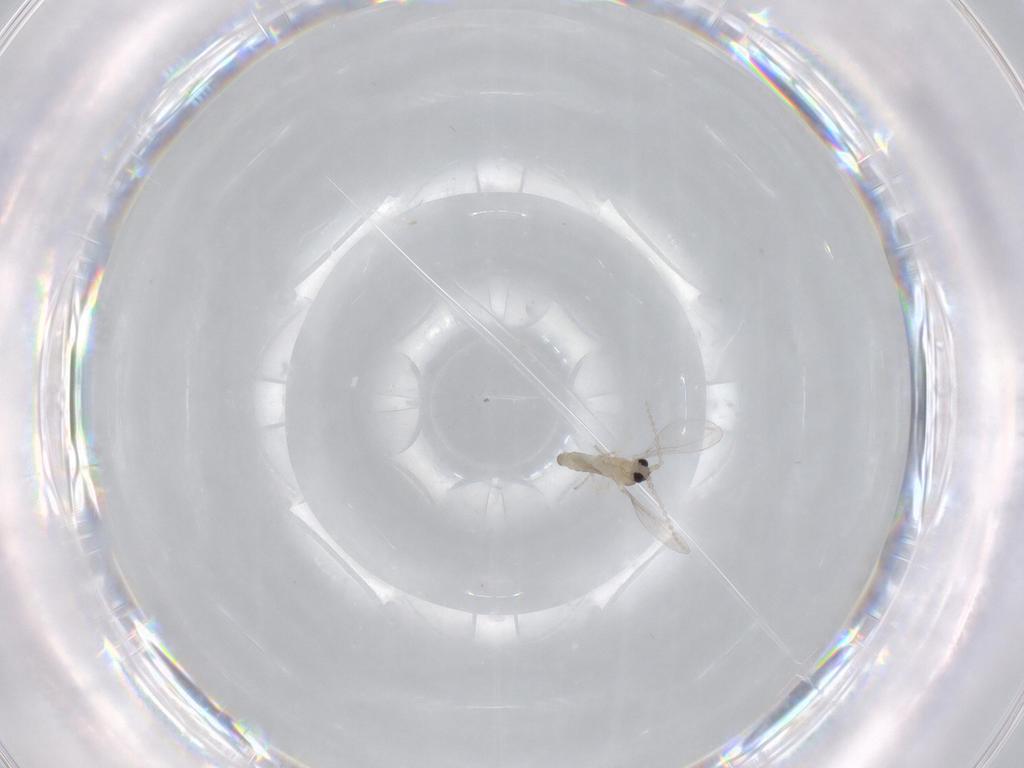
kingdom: Animalia
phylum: Arthropoda
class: Insecta
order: Diptera
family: Cecidomyiidae
